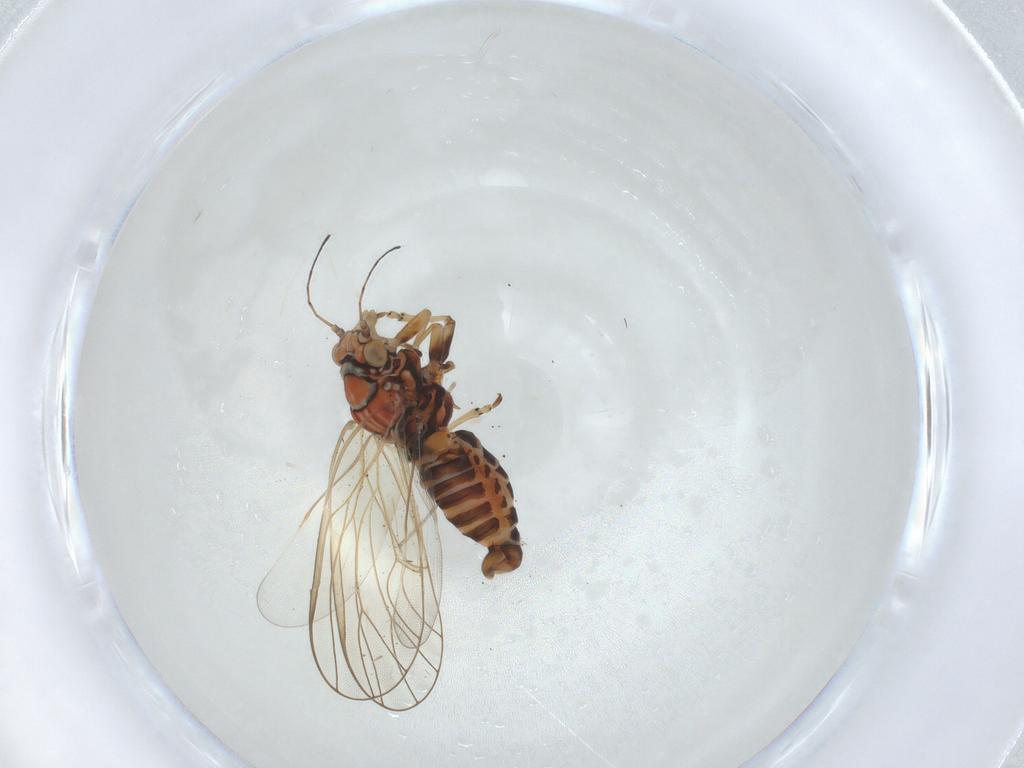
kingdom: Animalia
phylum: Arthropoda
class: Insecta
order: Hemiptera
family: Psyllidae
